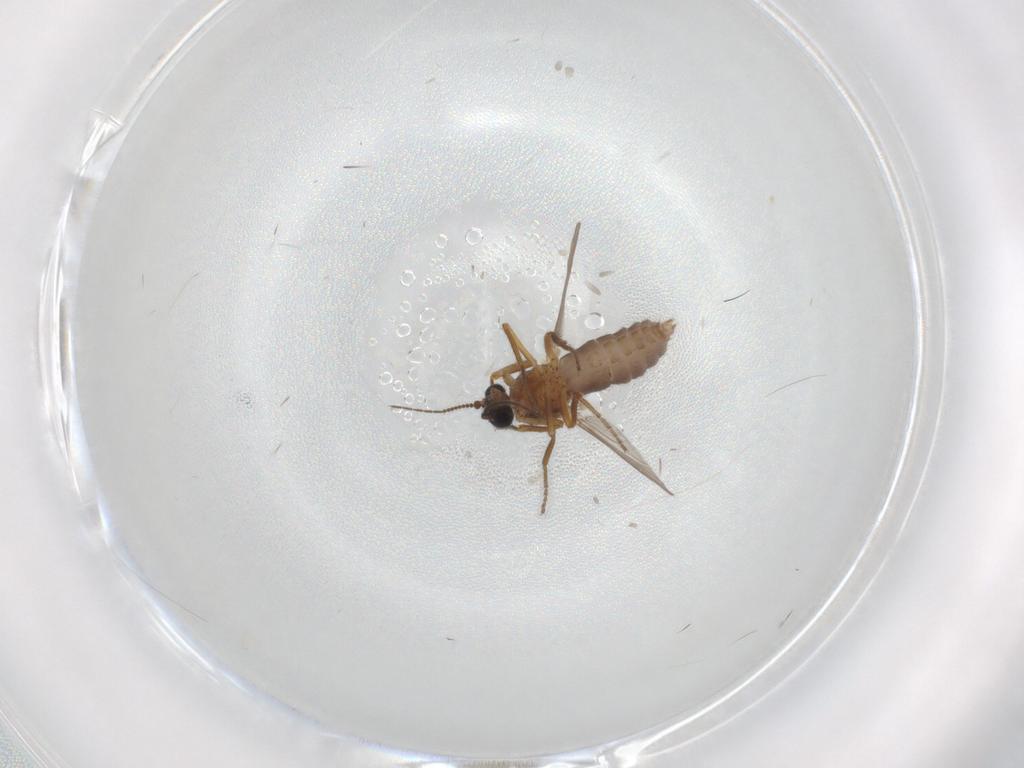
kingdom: Animalia
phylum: Arthropoda
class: Insecta
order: Diptera
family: Ceratopogonidae
